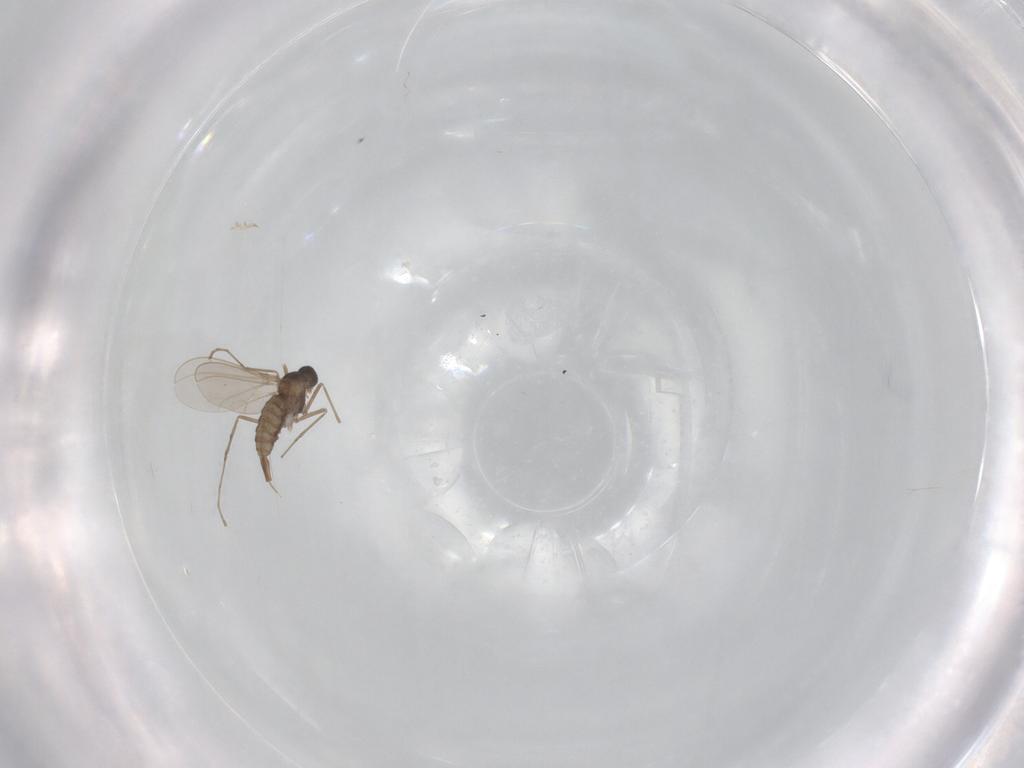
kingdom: Animalia
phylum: Arthropoda
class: Insecta
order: Diptera
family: Cecidomyiidae
